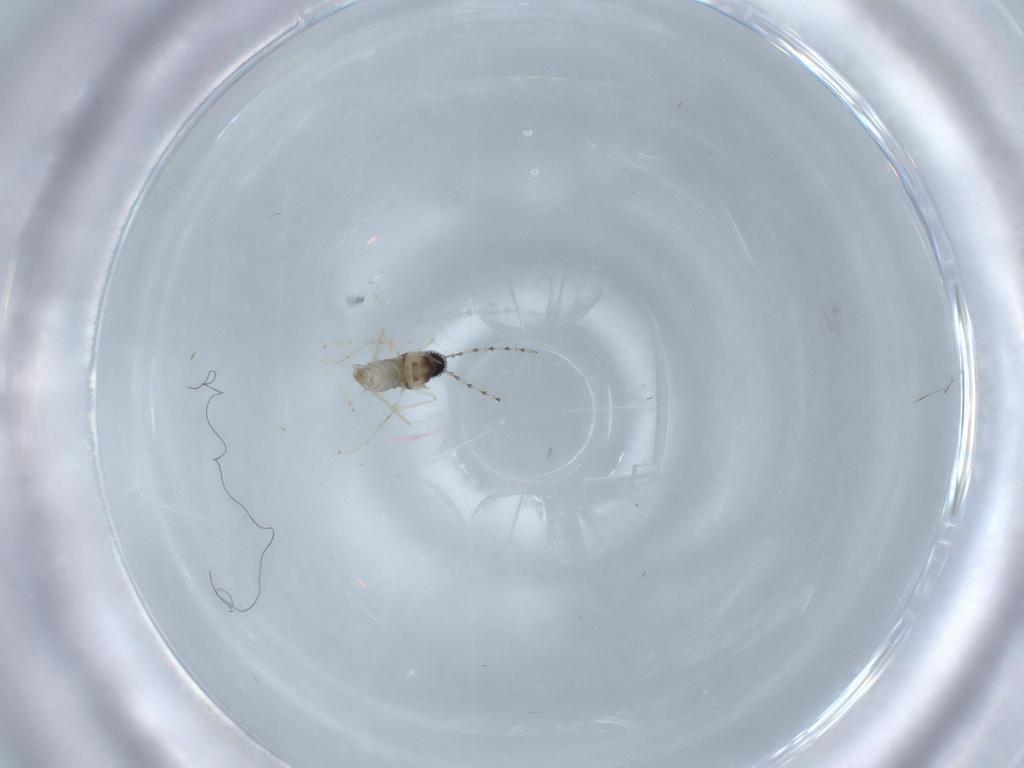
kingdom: Animalia
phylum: Arthropoda
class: Insecta
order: Diptera
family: Cecidomyiidae
